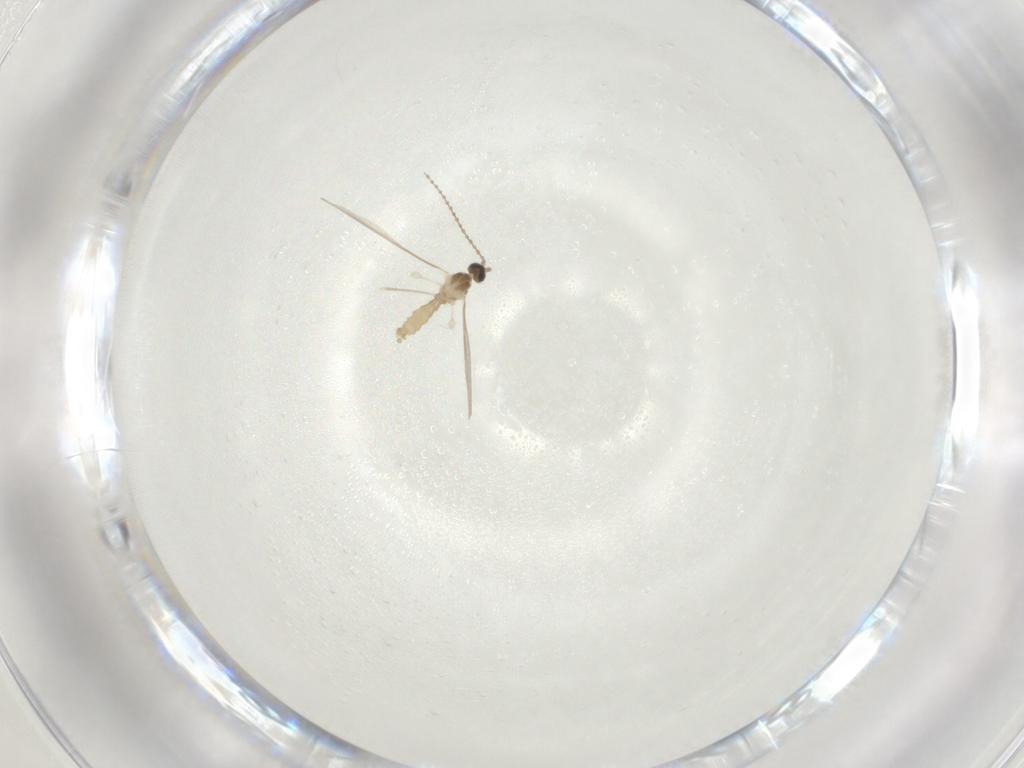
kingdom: Animalia
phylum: Arthropoda
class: Insecta
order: Diptera
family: Cecidomyiidae
